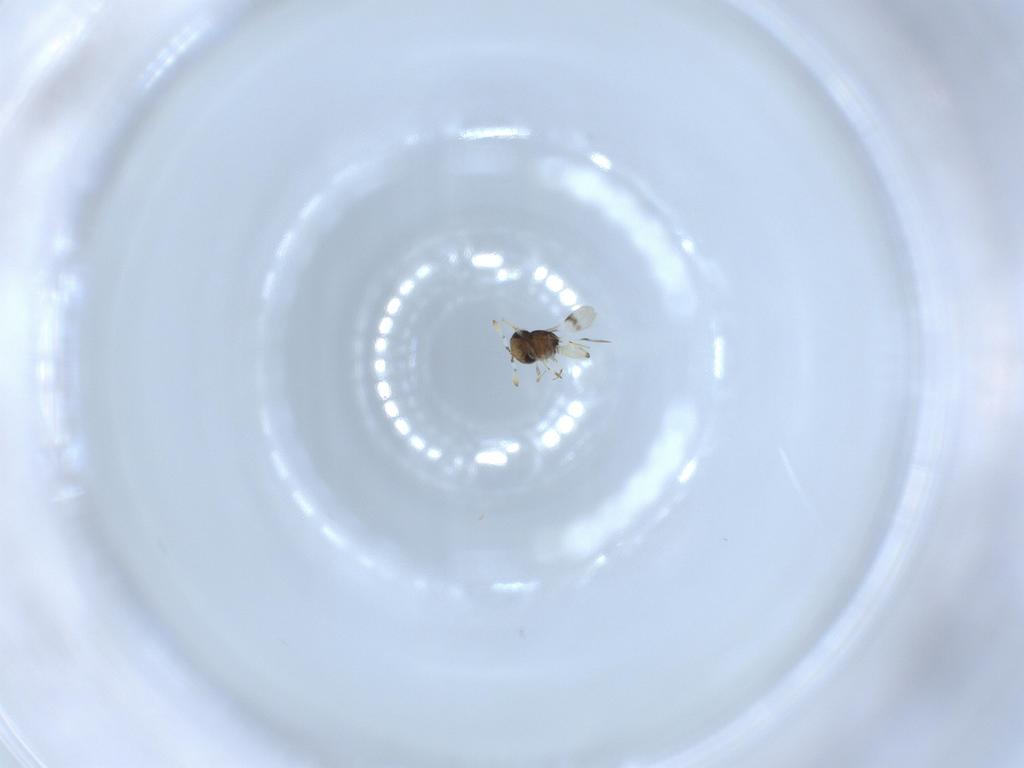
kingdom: Animalia
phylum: Arthropoda
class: Insecta
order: Hymenoptera
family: Scelionidae
